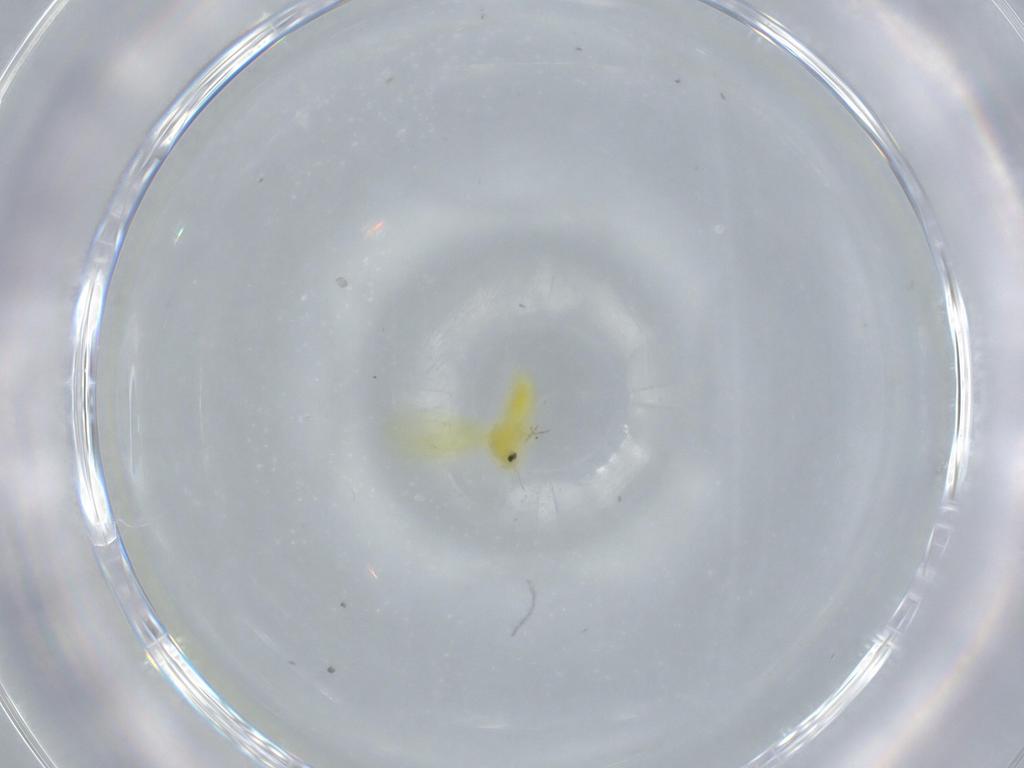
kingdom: Animalia
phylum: Arthropoda
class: Insecta
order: Hemiptera
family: Aleyrodidae
